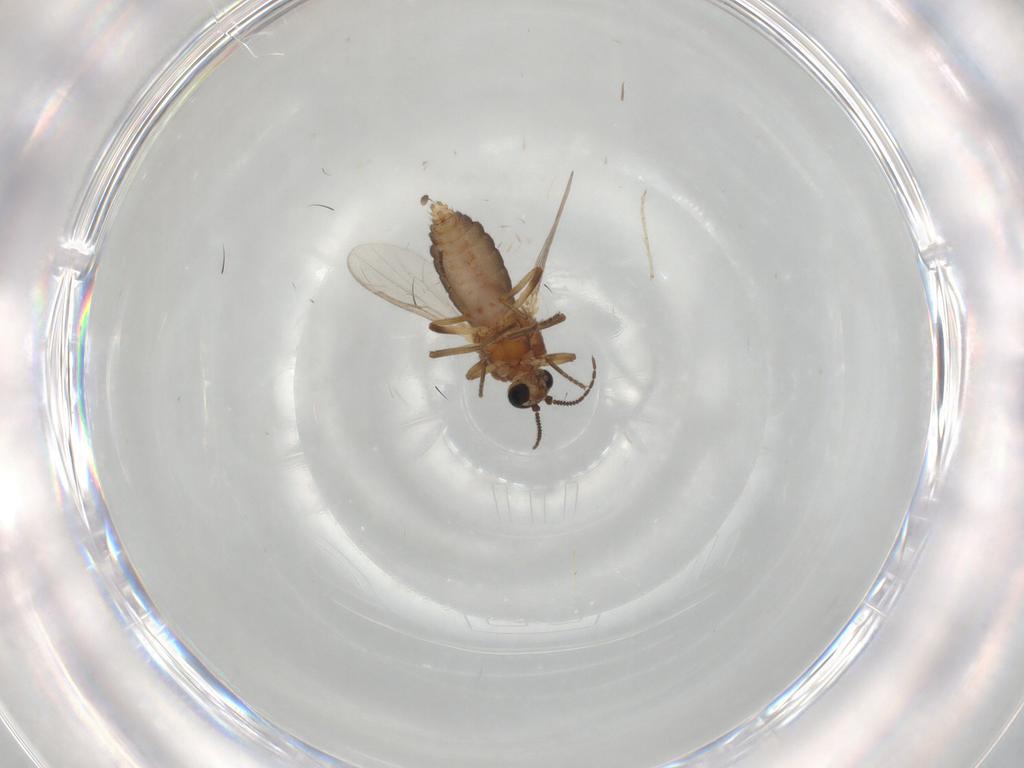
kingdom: Animalia
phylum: Arthropoda
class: Insecta
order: Diptera
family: Ceratopogonidae
